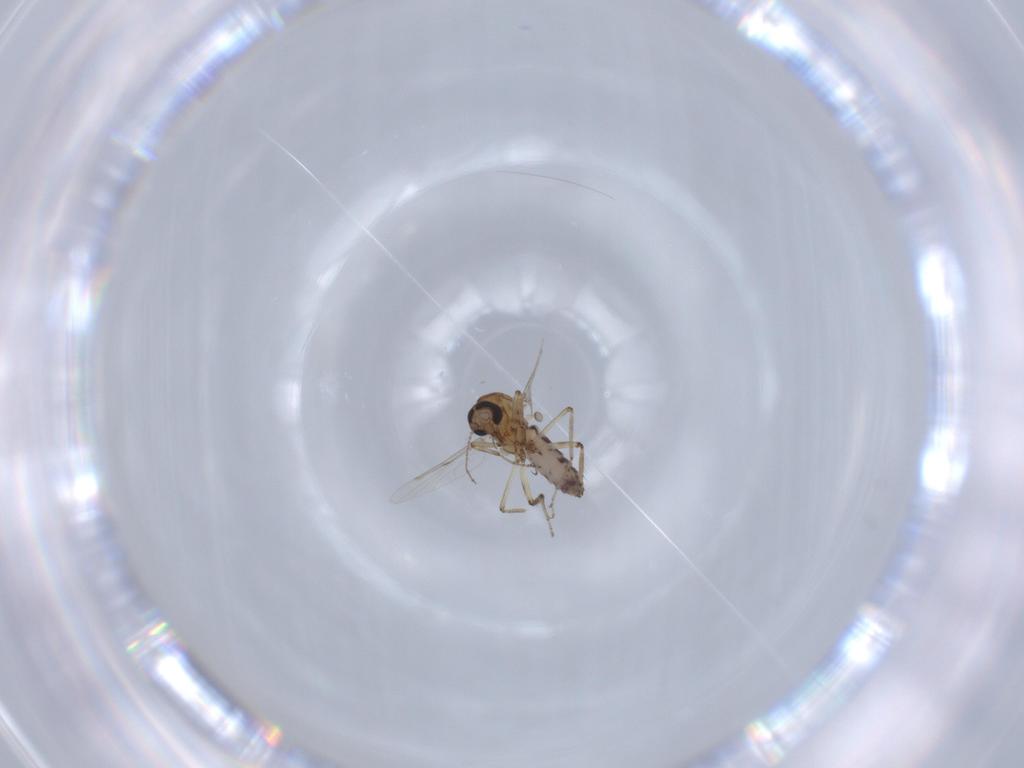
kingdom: Animalia
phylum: Arthropoda
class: Insecta
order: Diptera
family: Ceratopogonidae
